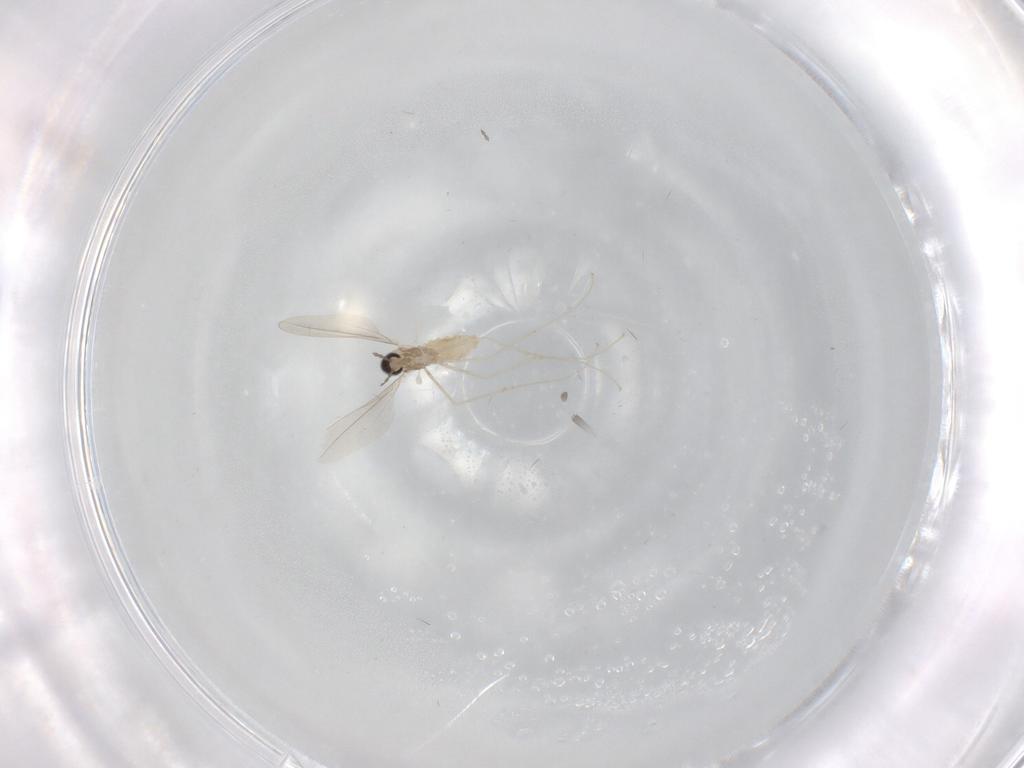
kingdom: Animalia
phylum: Arthropoda
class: Insecta
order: Diptera
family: Cecidomyiidae
